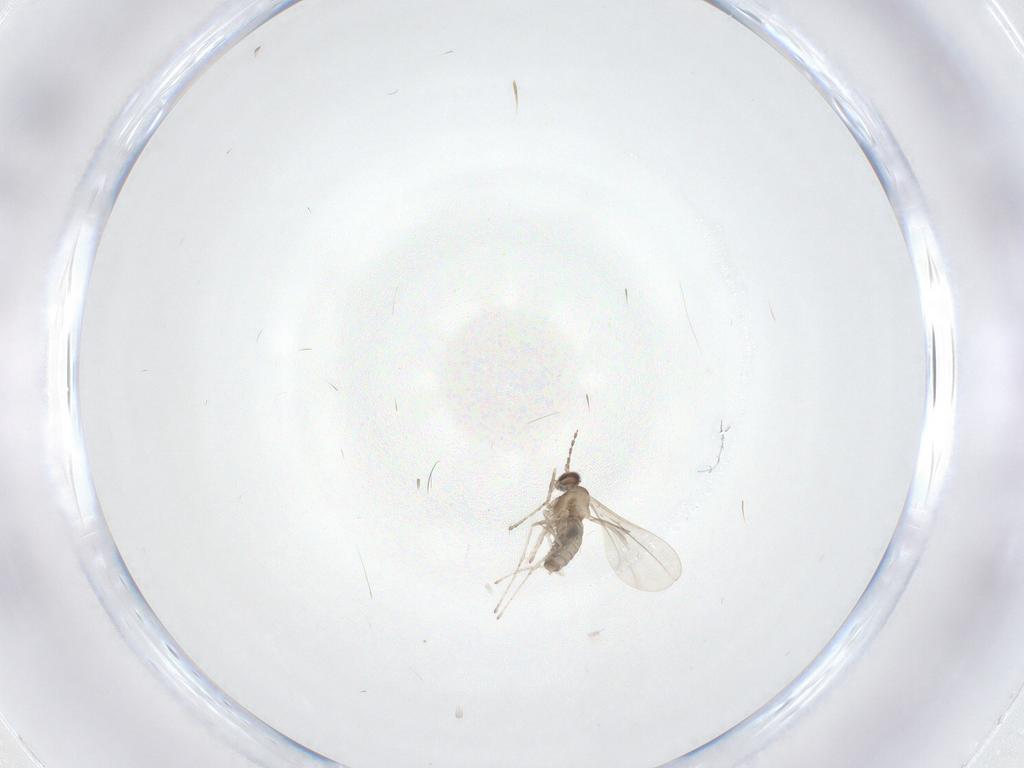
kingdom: Animalia
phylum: Arthropoda
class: Insecta
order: Diptera
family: Cecidomyiidae
